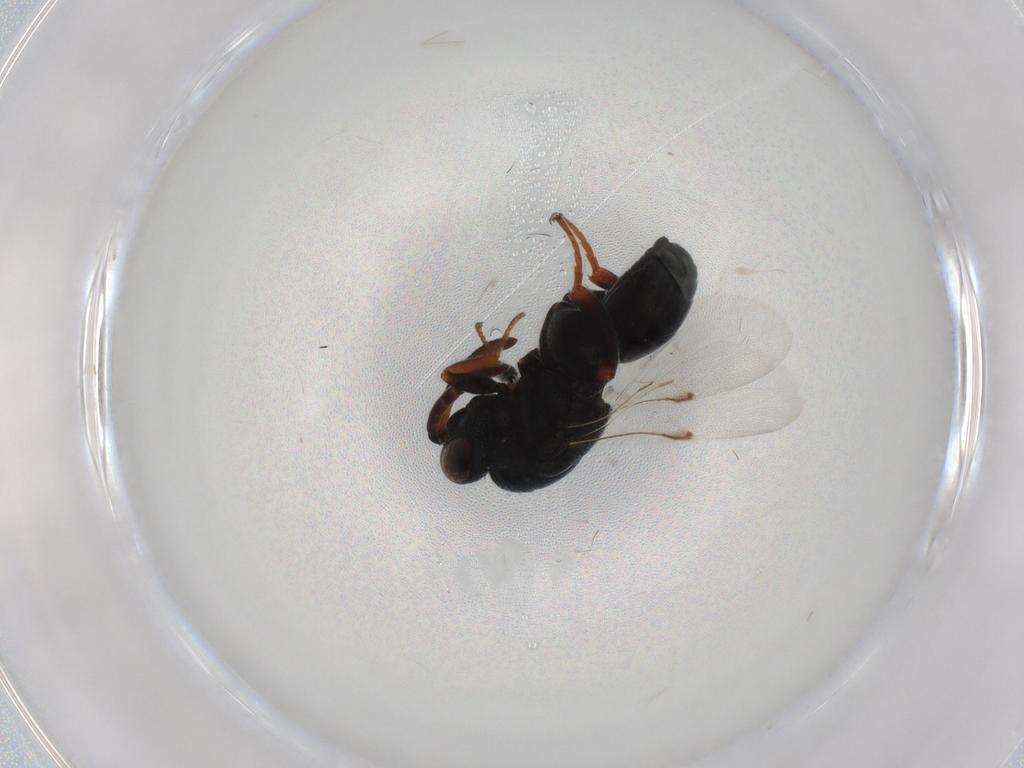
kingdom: Animalia
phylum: Arthropoda
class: Insecta
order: Hymenoptera
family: Chalcididae
